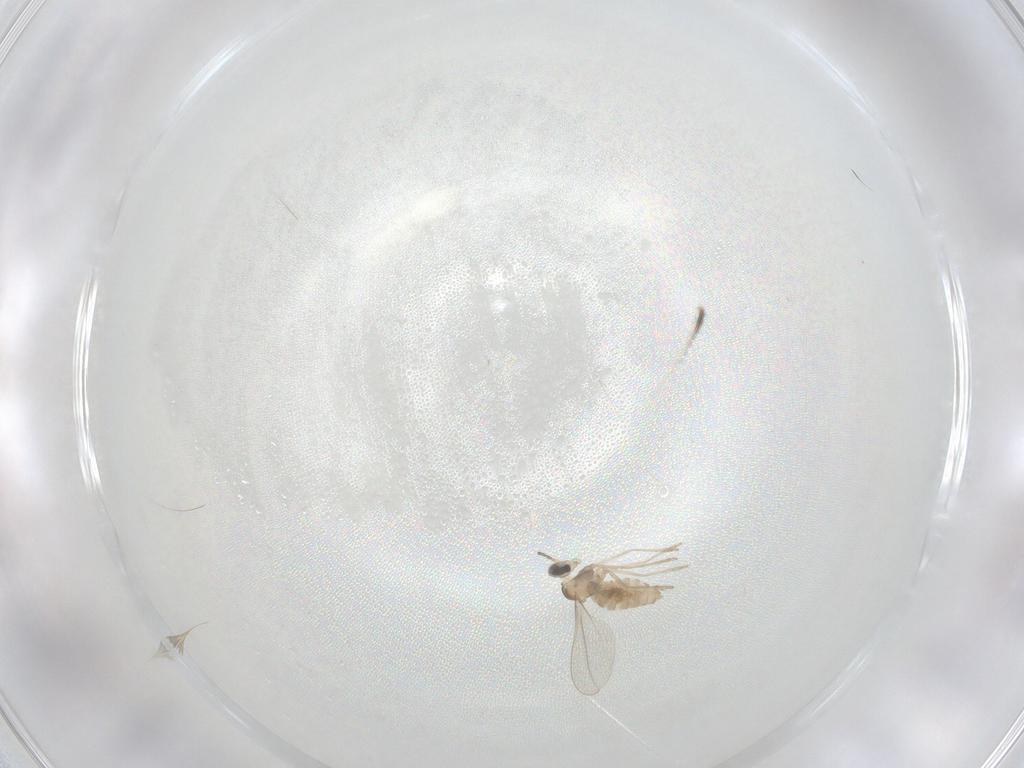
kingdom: Animalia
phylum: Arthropoda
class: Insecta
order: Diptera
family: Cecidomyiidae
